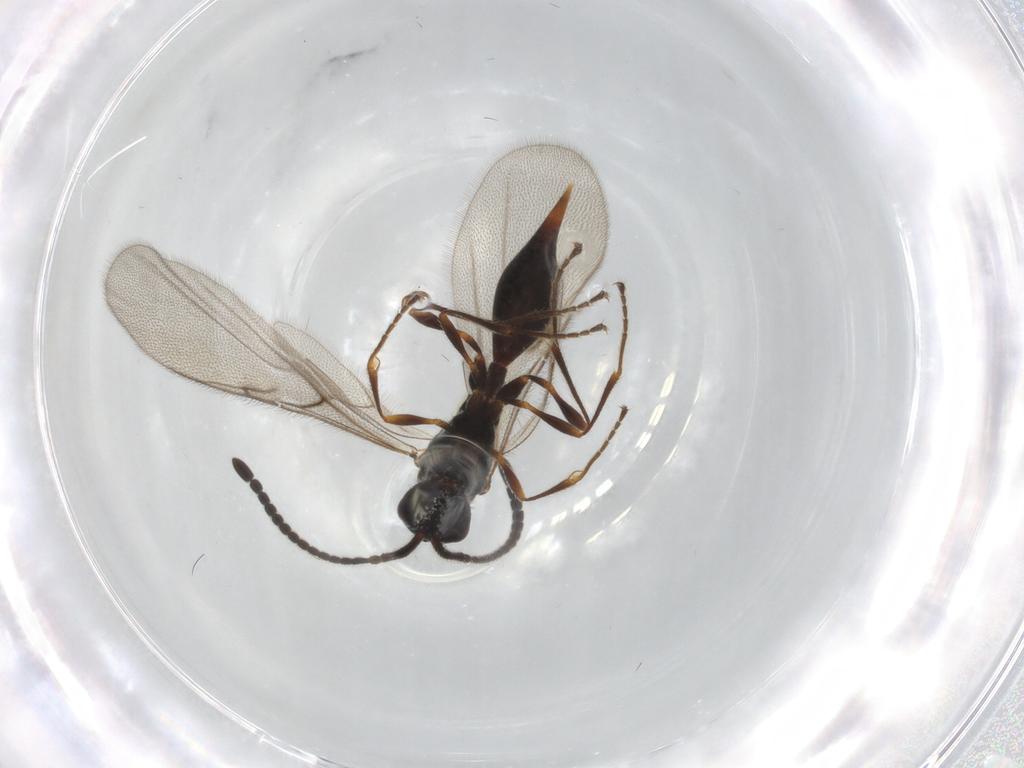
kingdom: Animalia
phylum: Arthropoda
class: Insecta
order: Hymenoptera
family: Diapriidae
